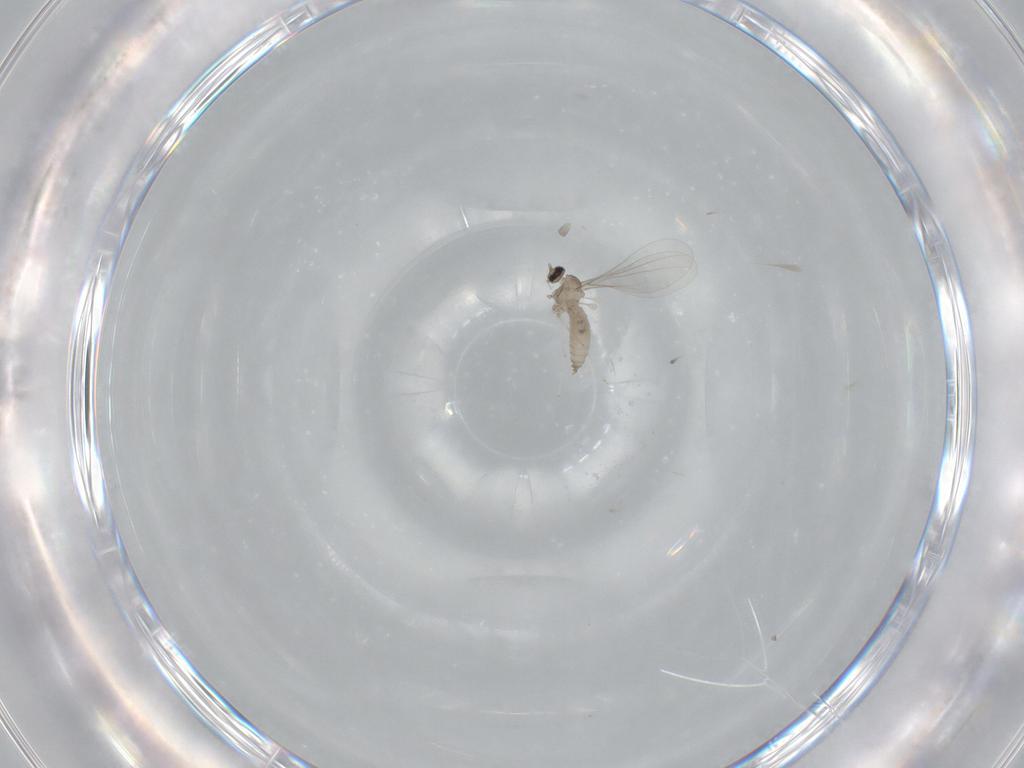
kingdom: Animalia
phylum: Arthropoda
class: Insecta
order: Diptera
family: Cecidomyiidae
